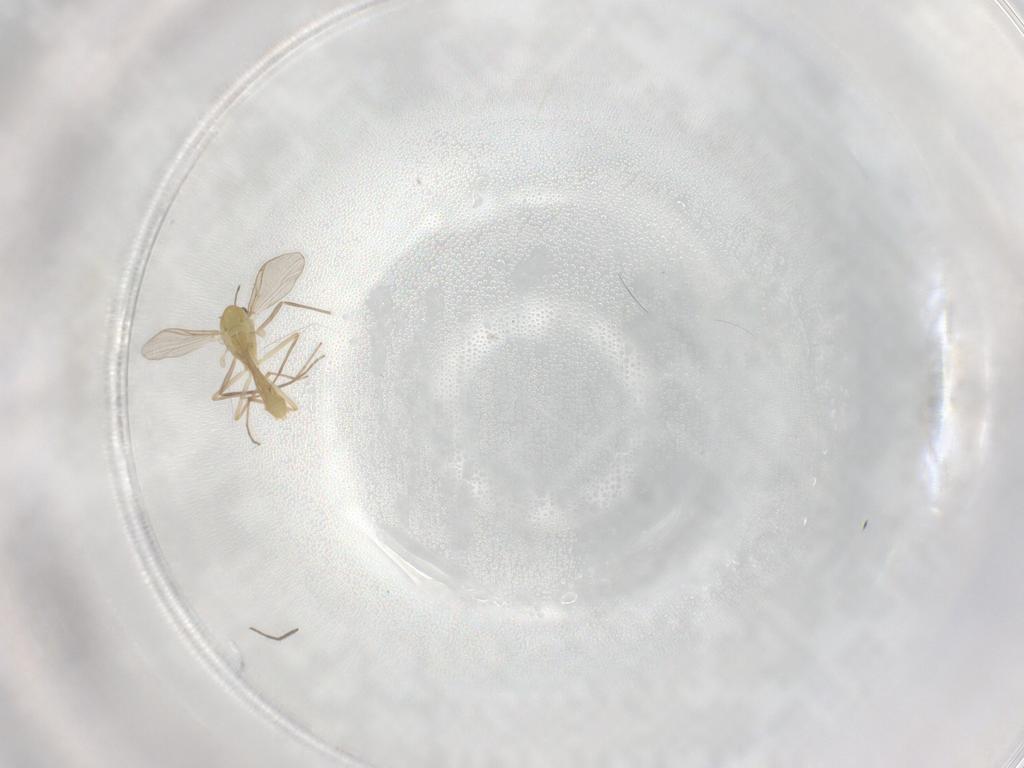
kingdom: Animalia
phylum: Arthropoda
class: Insecta
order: Diptera
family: Chironomidae
